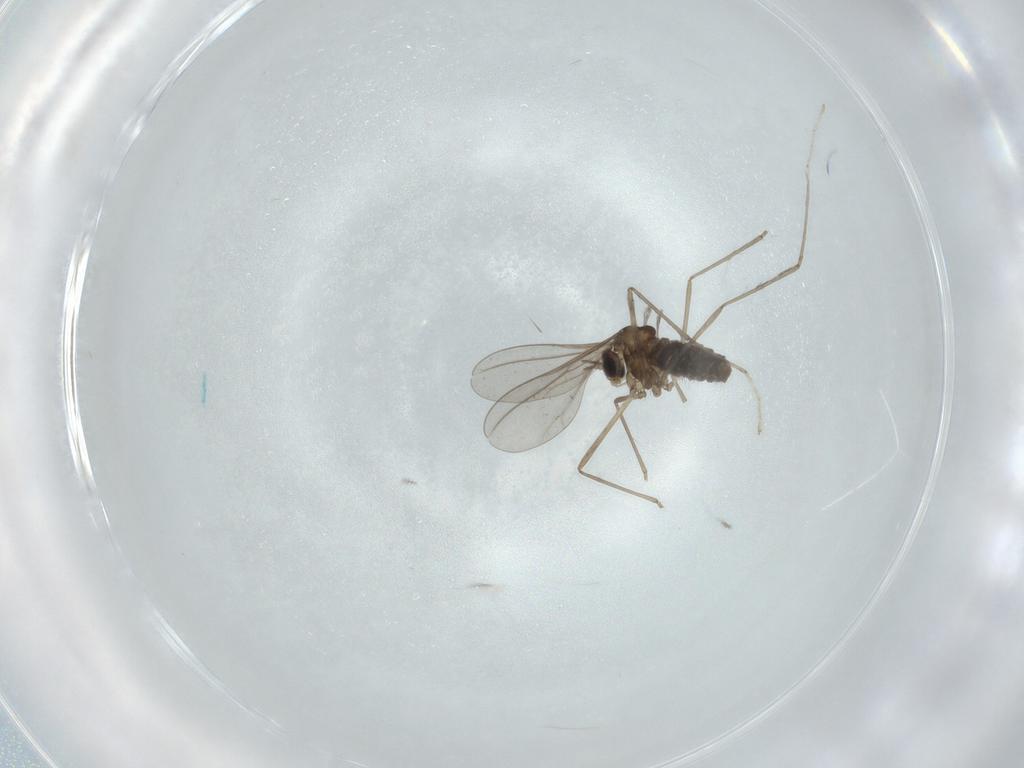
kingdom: Animalia
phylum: Arthropoda
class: Insecta
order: Diptera
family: Cecidomyiidae
